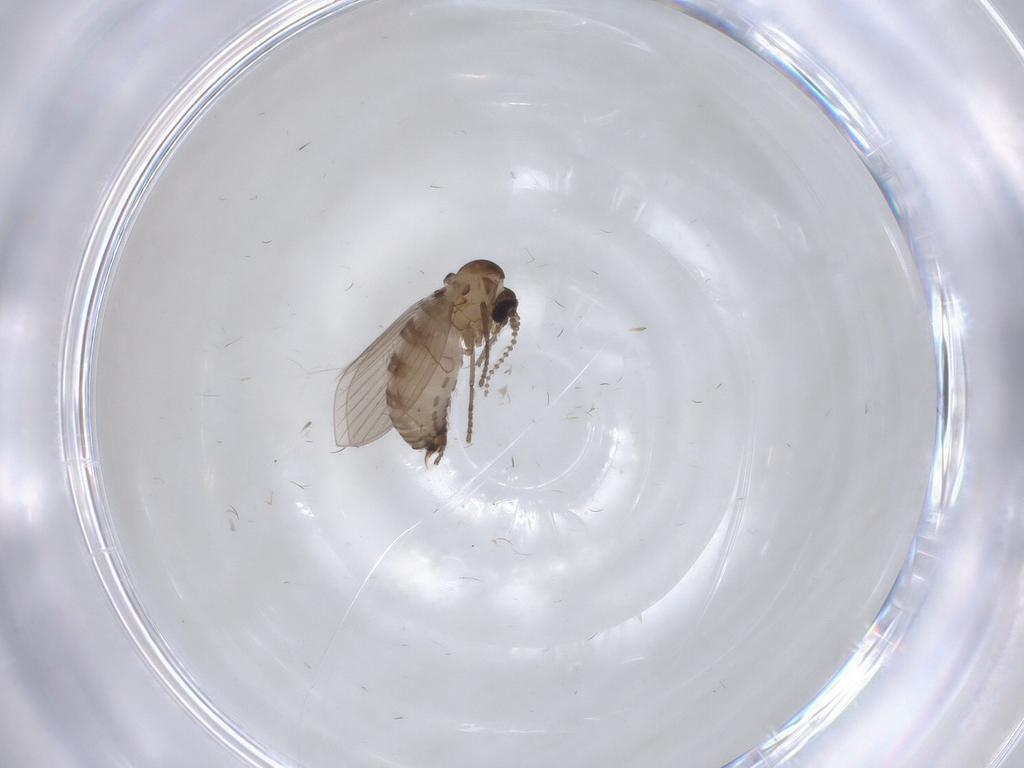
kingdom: Animalia
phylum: Arthropoda
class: Insecta
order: Diptera
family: Psychodidae
